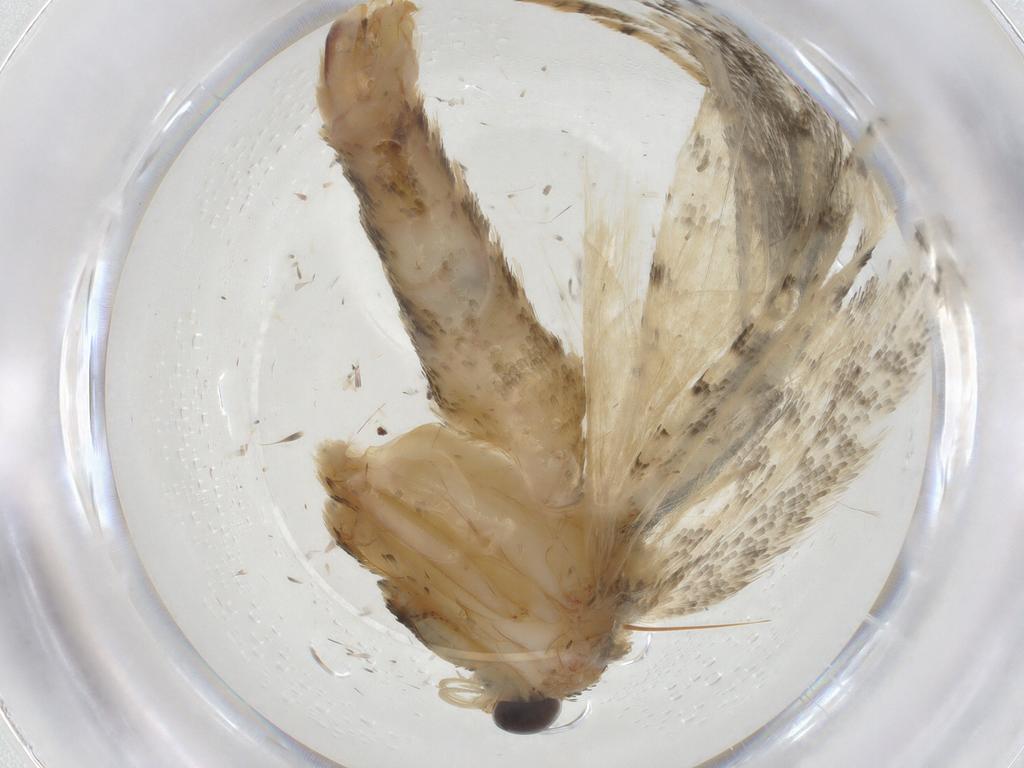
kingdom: Animalia
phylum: Arthropoda
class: Insecta
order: Lepidoptera
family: Tortricidae
